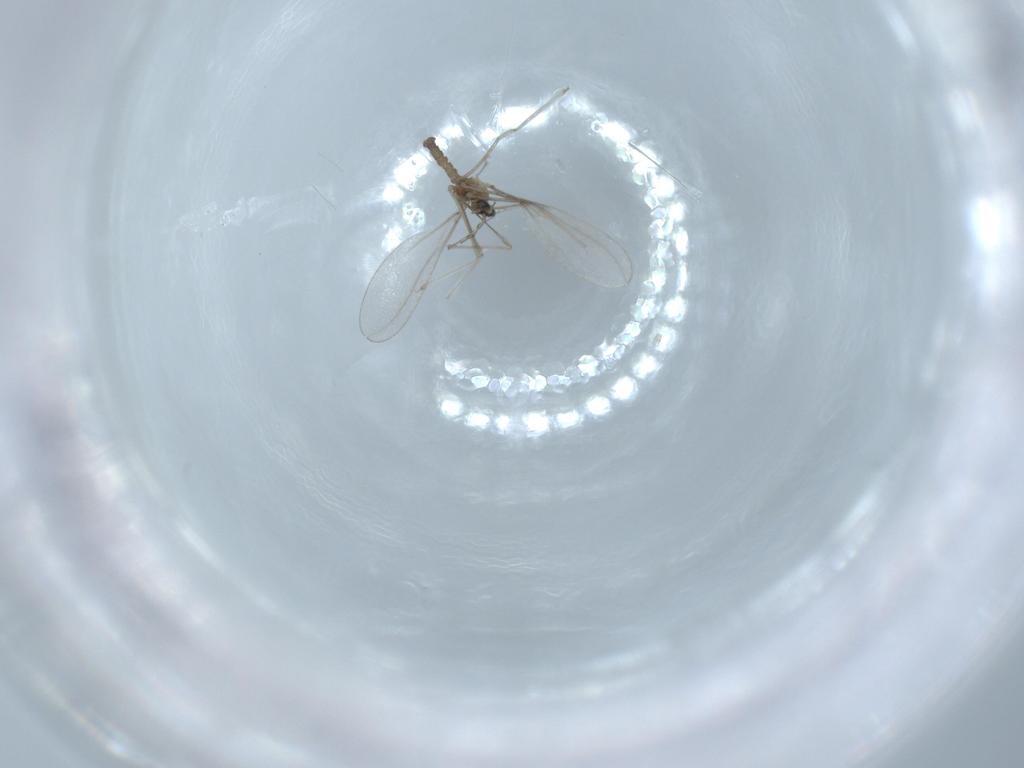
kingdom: Animalia
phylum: Arthropoda
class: Insecta
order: Diptera
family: Cecidomyiidae
